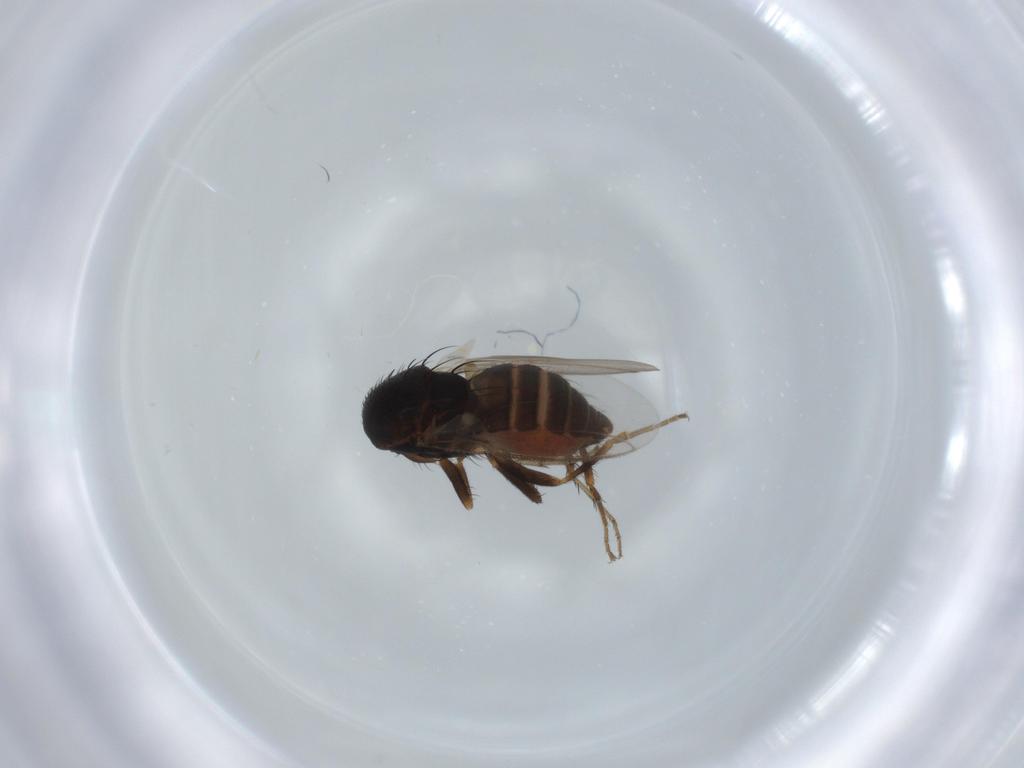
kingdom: Animalia
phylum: Arthropoda
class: Insecta
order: Diptera
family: Sphaeroceridae
